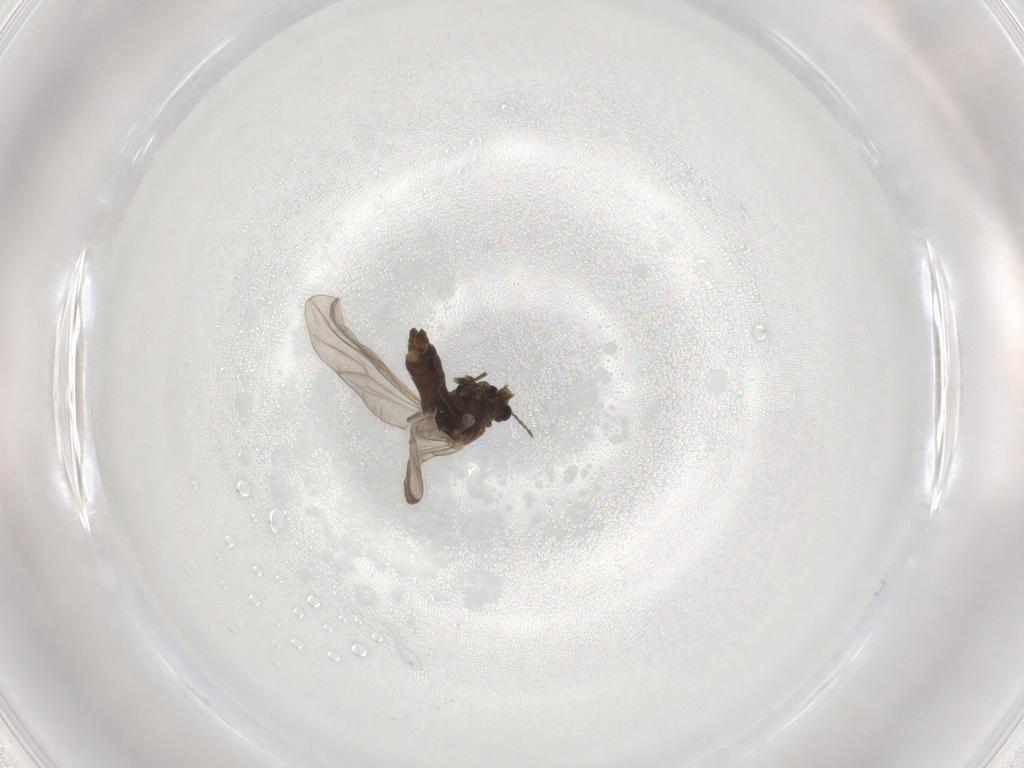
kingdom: Animalia
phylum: Arthropoda
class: Insecta
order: Diptera
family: Chironomidae
